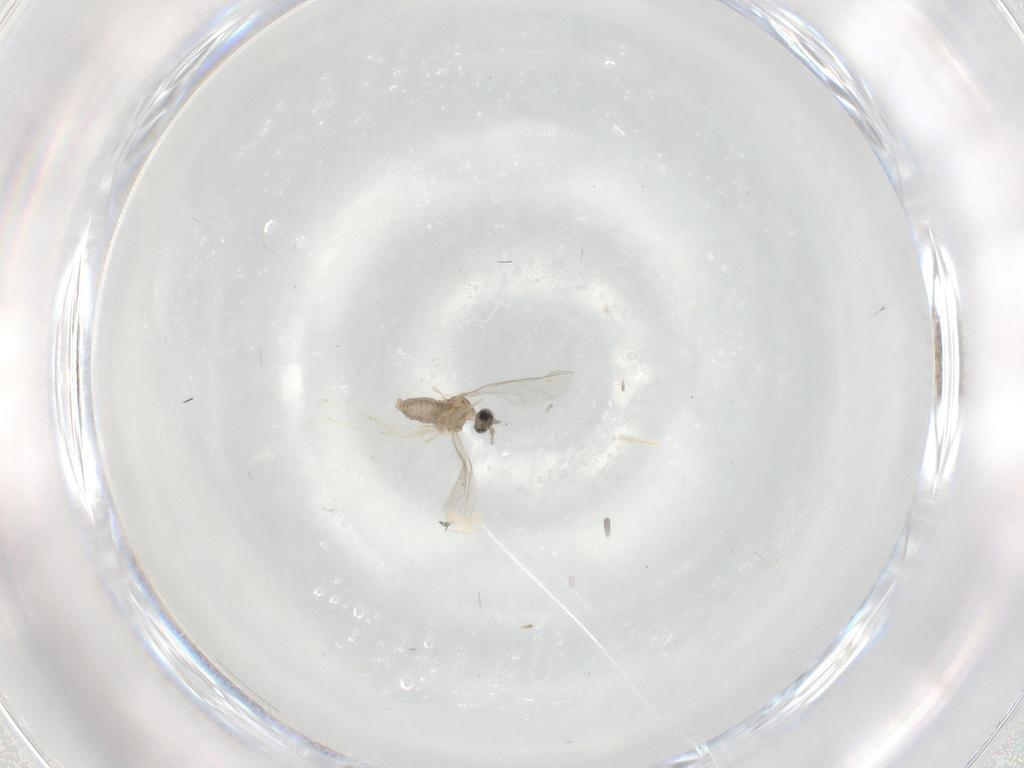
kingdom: Animalia
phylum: Arthropoda
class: Insecta
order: Diptera
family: Cecidomyiidae
